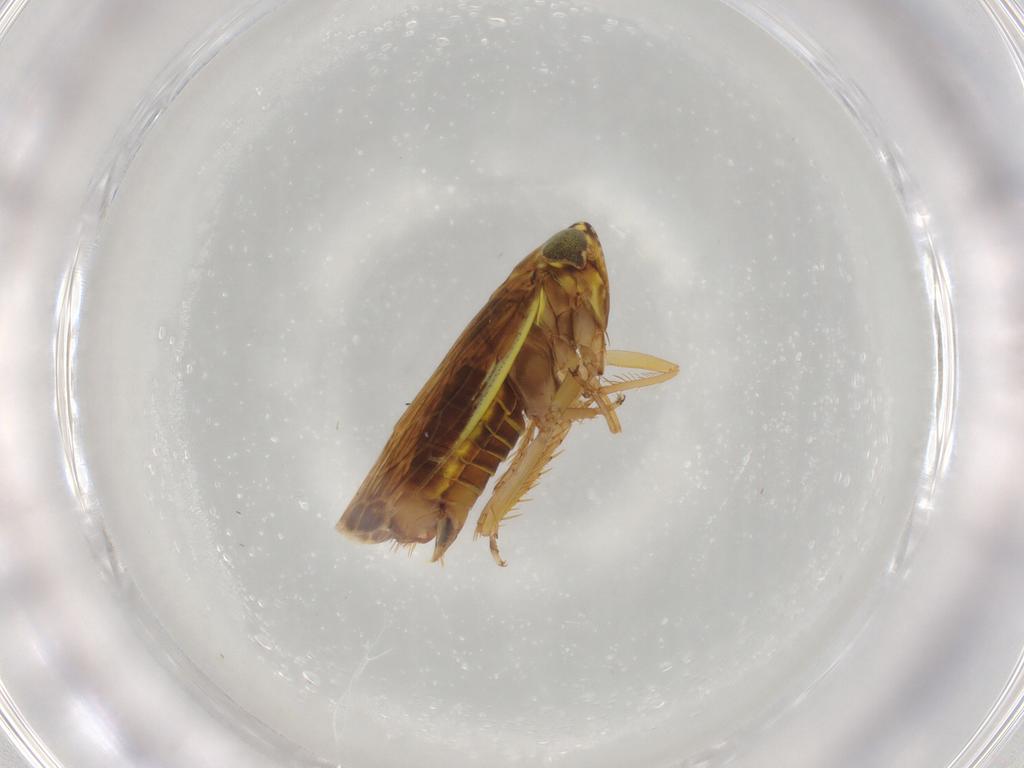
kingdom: Animalia
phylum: Arthropoda
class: Insecta
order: Hemiptera
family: Cicadellidae
